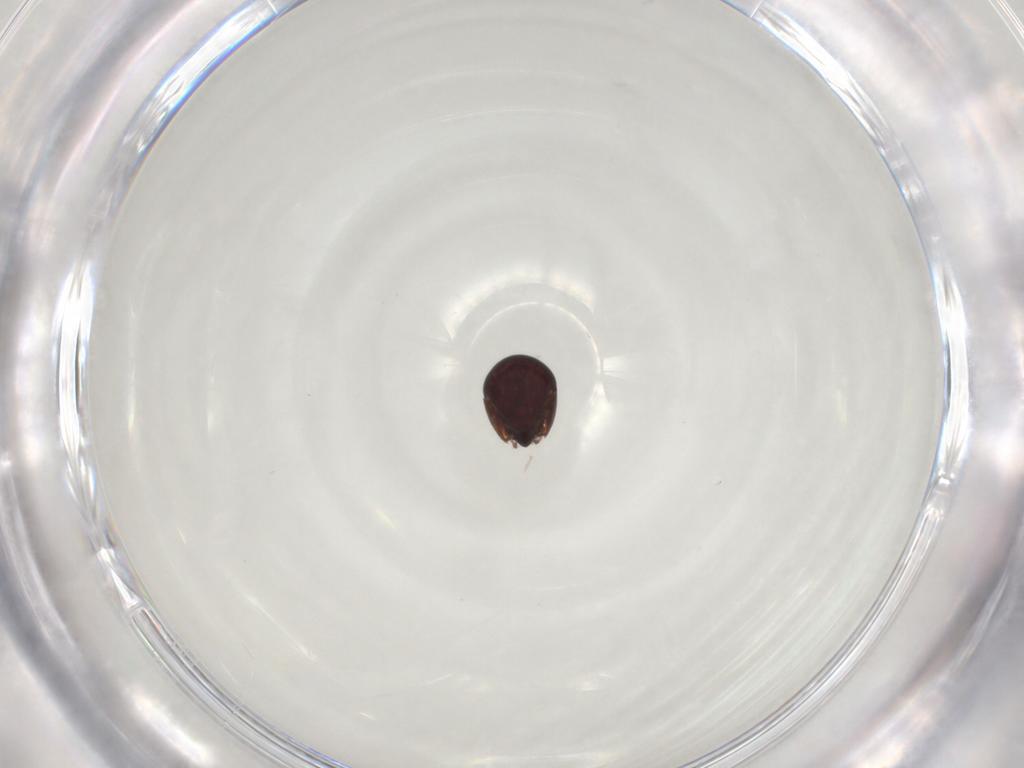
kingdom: Animalia
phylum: Arthropoda
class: Arachnida
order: Sarcoptiformes
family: Galumnidae
